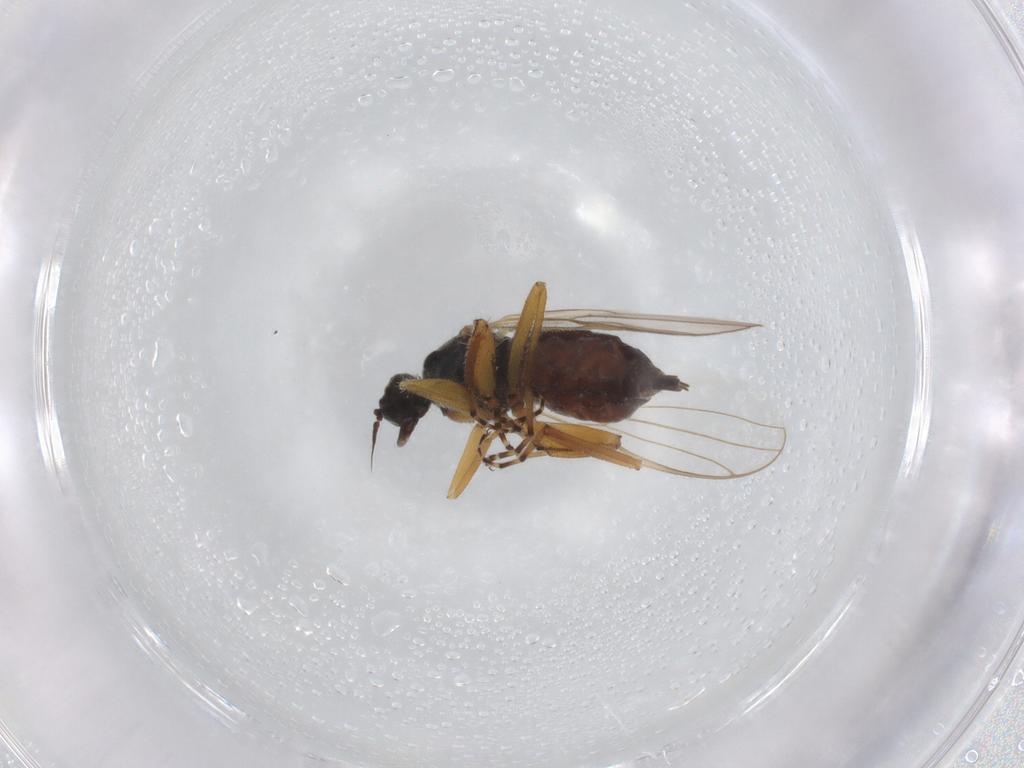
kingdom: Animalia
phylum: Arthropoda
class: Insecta
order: Diptera
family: Hybotidae
